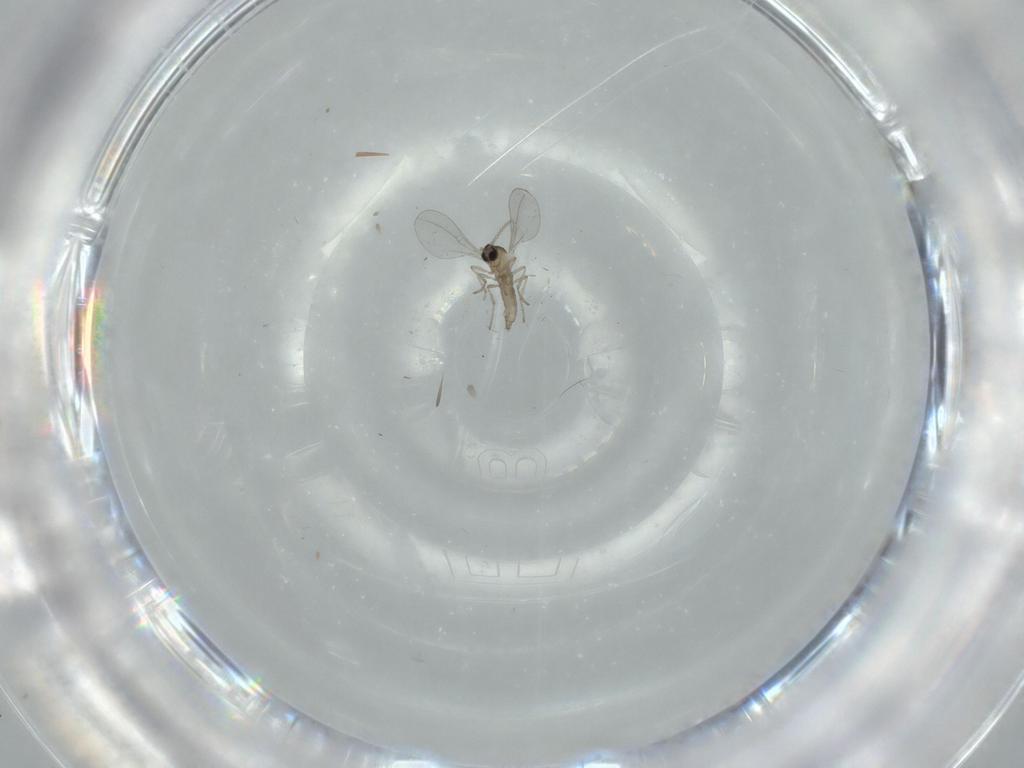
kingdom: Animalia
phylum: Arthropoda
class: Insecta
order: Diptera
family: Cecidomyiidae
